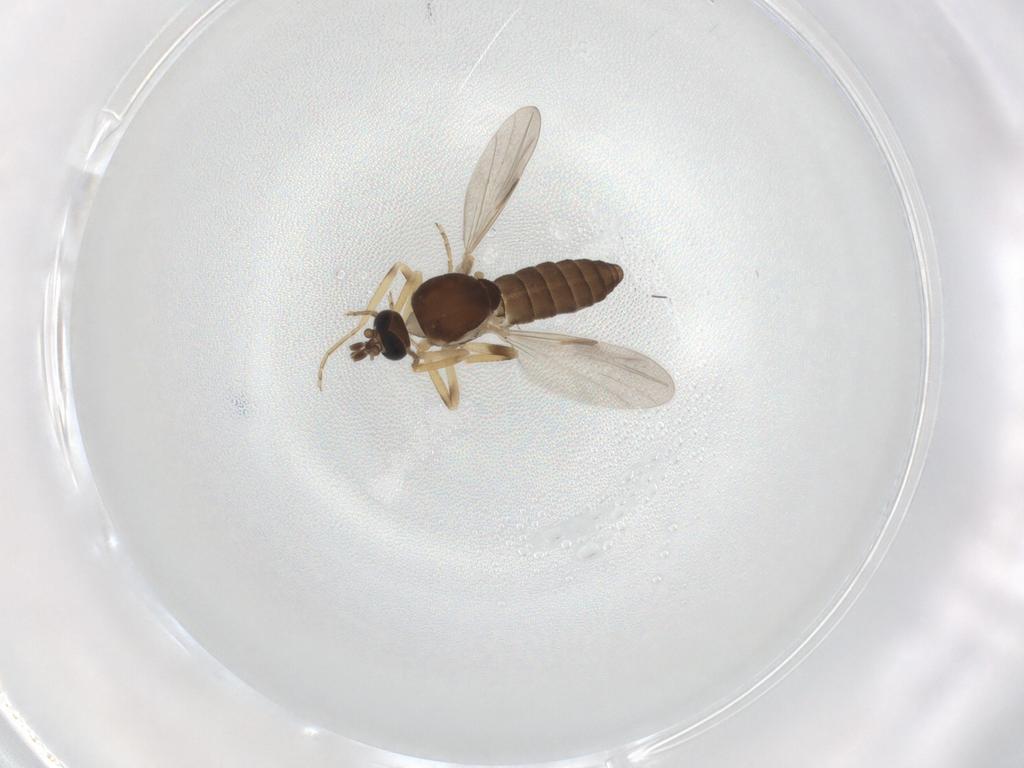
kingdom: Animalia
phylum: Arthropoda
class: Insecta
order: Diptera
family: Ceratopogonidae
